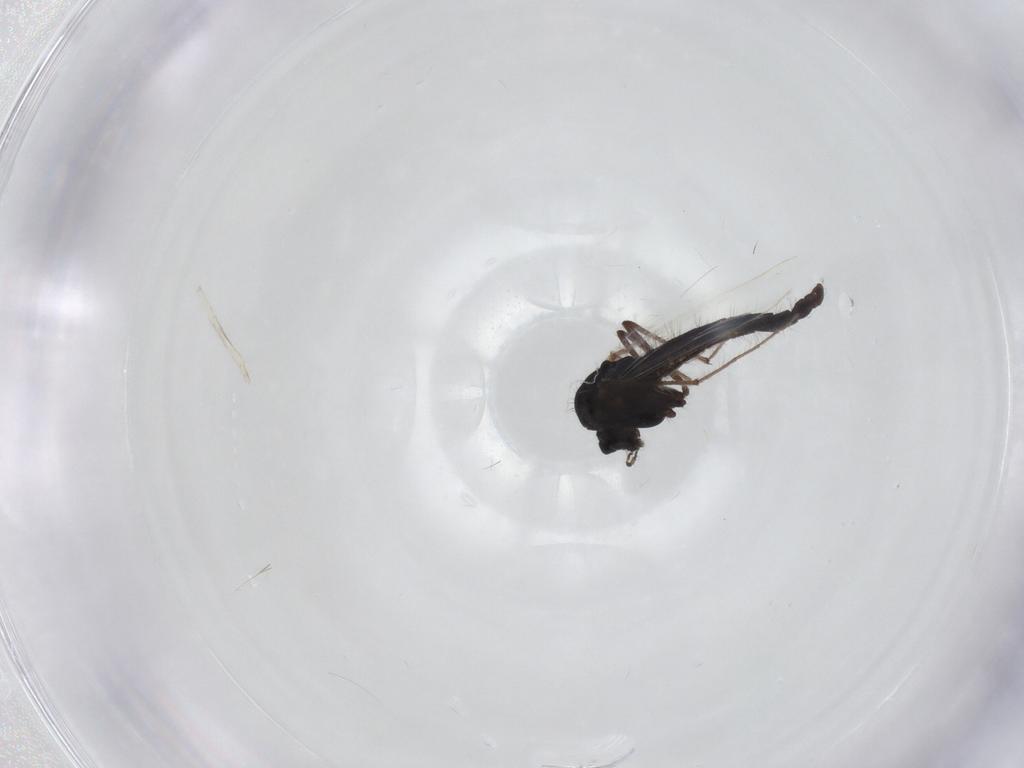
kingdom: Animalia
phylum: Arthropoda
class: Insecta
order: Diptera
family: Chironomidae
